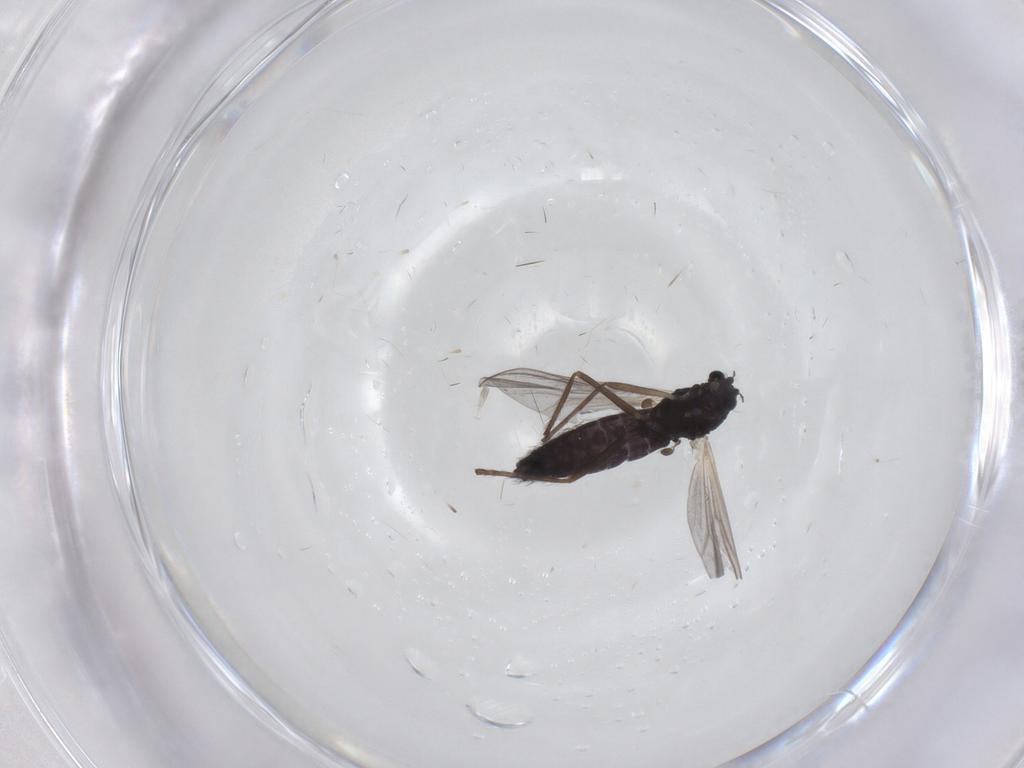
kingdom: Animalia
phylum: Arthropoda
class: Insecta
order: Diptera
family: Chironomidae
